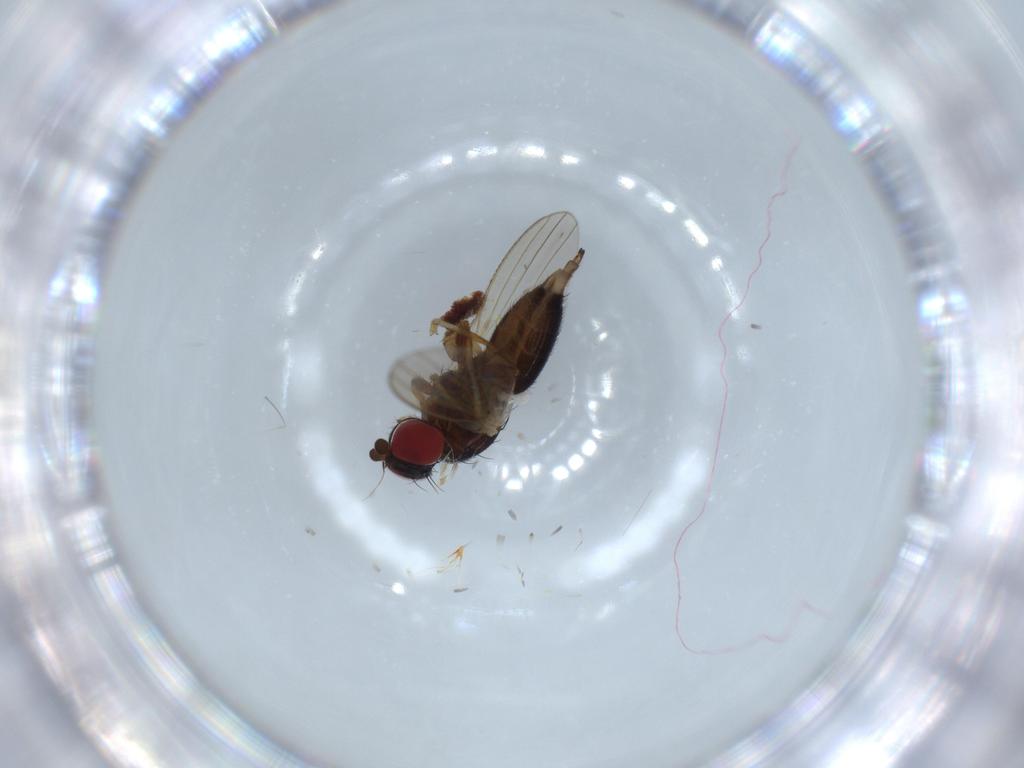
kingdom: Animalia
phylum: Arthropoda
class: Insecta
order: Diptera
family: Chamaemyiidae
